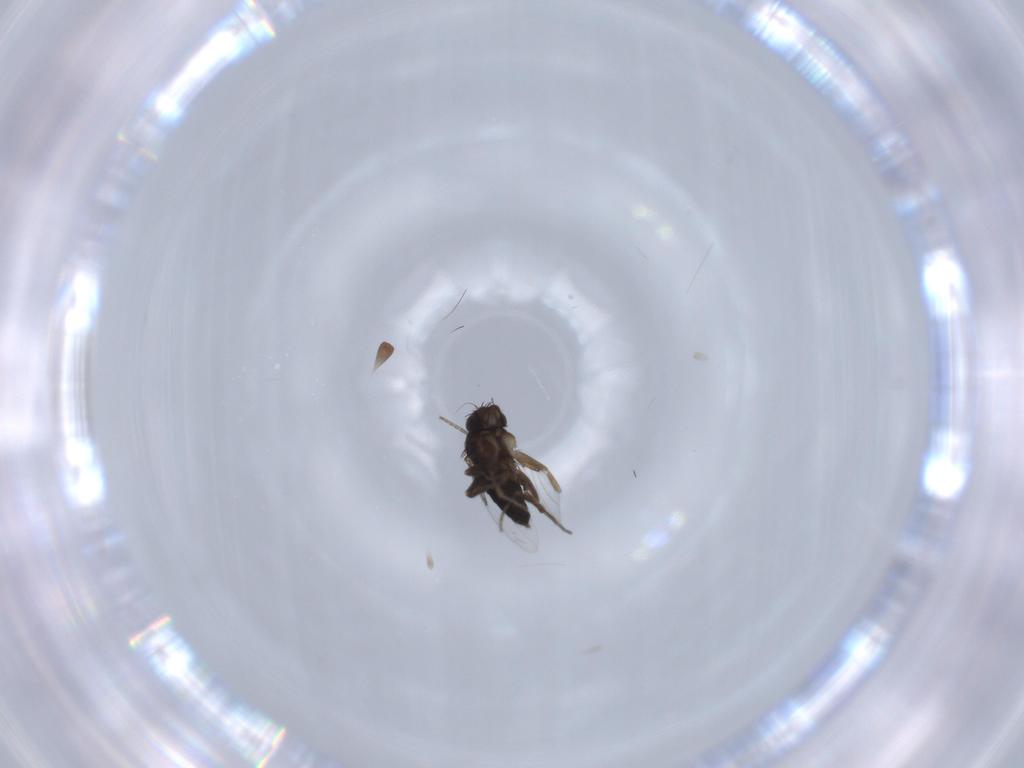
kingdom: Animalia
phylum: Arthropoda
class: Insecta
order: Diptera
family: Phoridae
